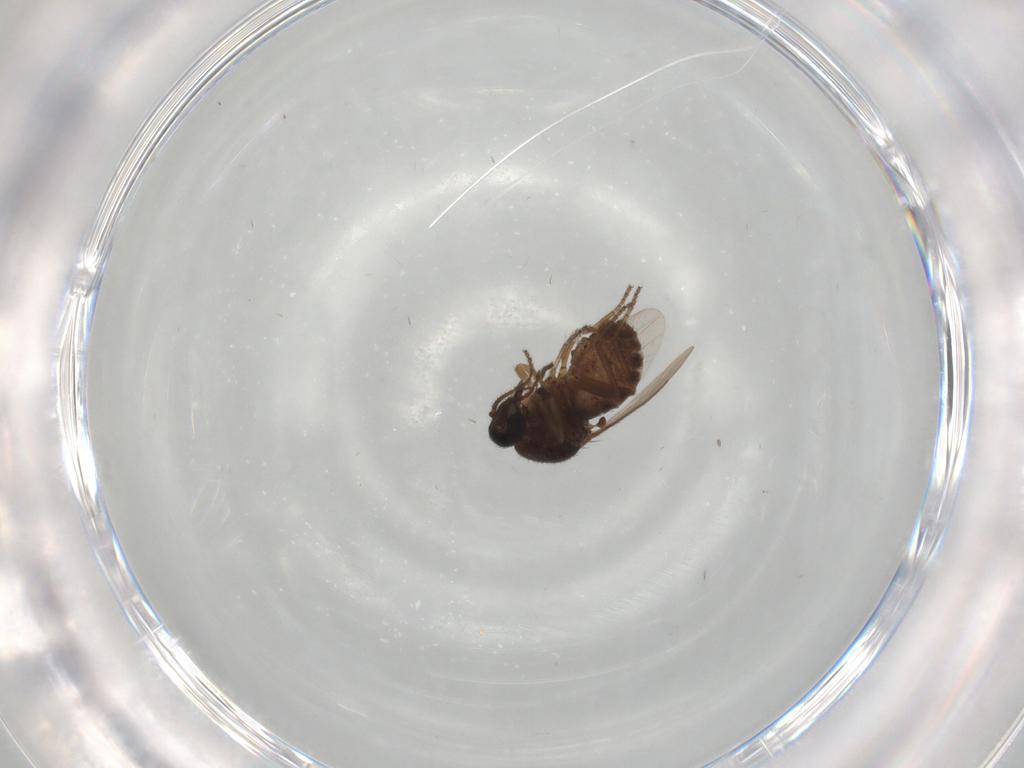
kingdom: Animalia
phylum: Arthropoda
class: Insecta
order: Diptera
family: Ceratopogonidae
